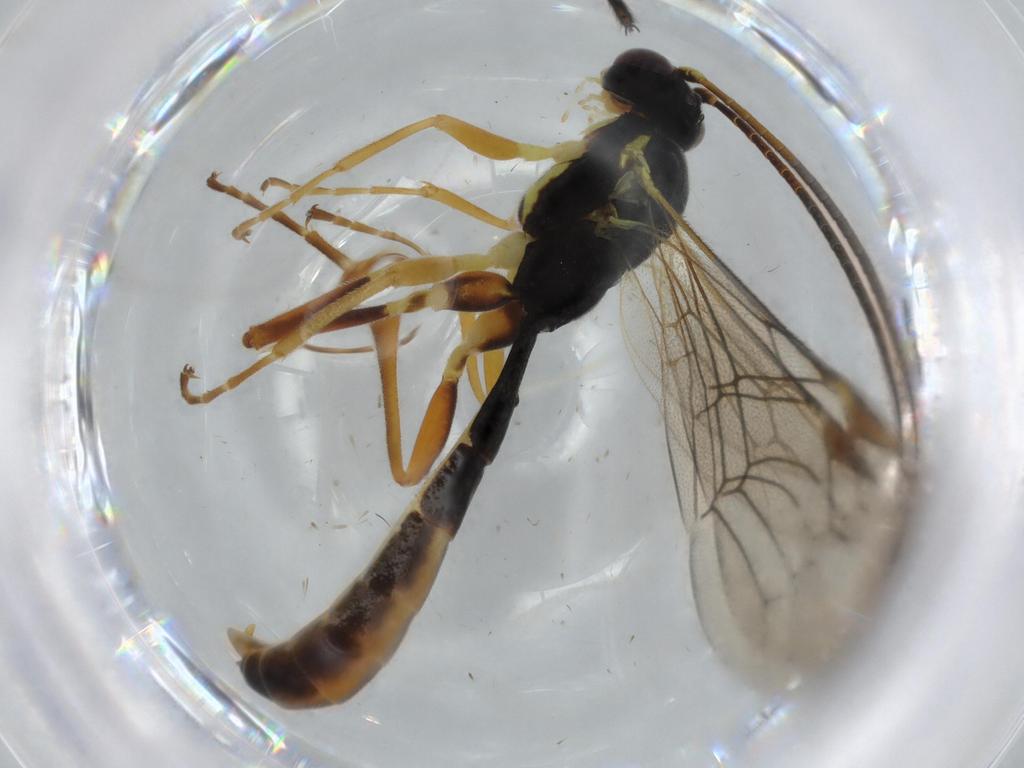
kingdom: Animalia
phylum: Arthropoda
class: Insecta
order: Hymenoptera
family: Ichneumonidae
